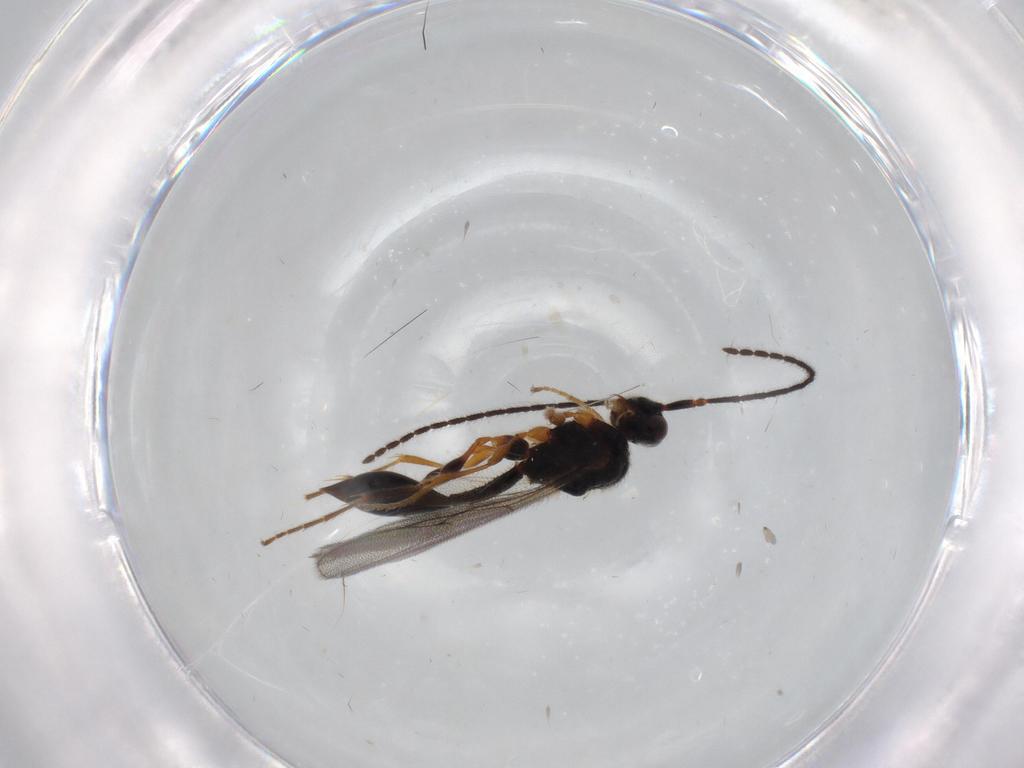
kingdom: Animalia
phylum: Arthropoda
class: Insecta
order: Hymenoptera
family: Diapriidae
